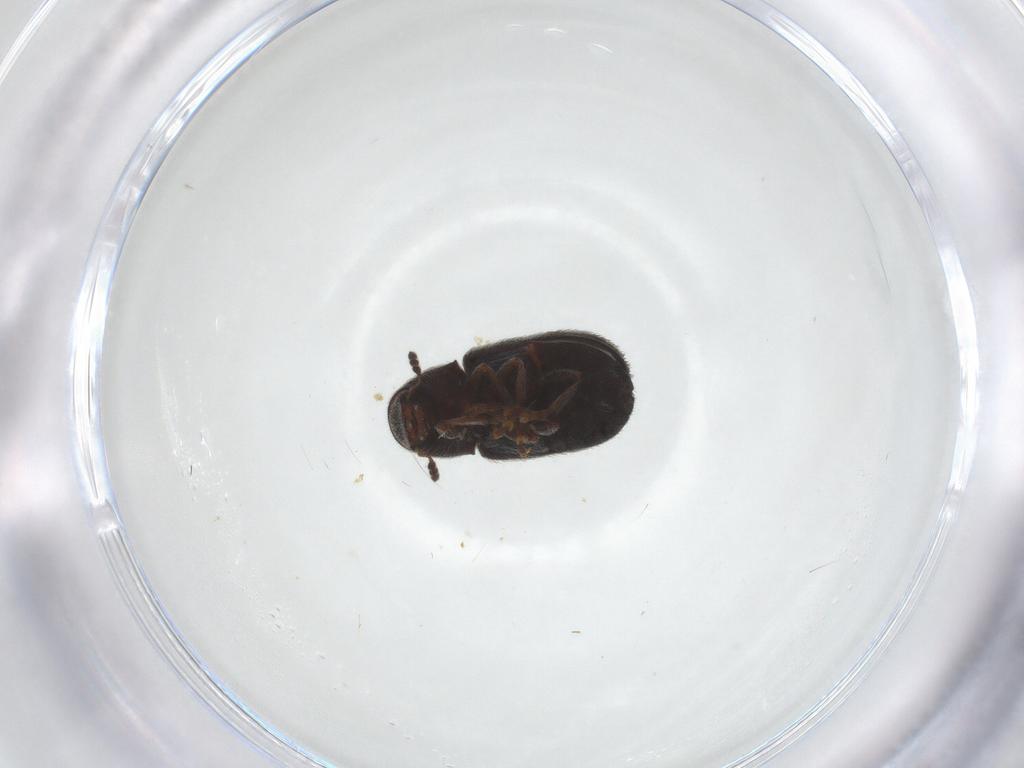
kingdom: Animalia
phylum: Arthropoda
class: Insecta
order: Coleoptera
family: Anthribidae
